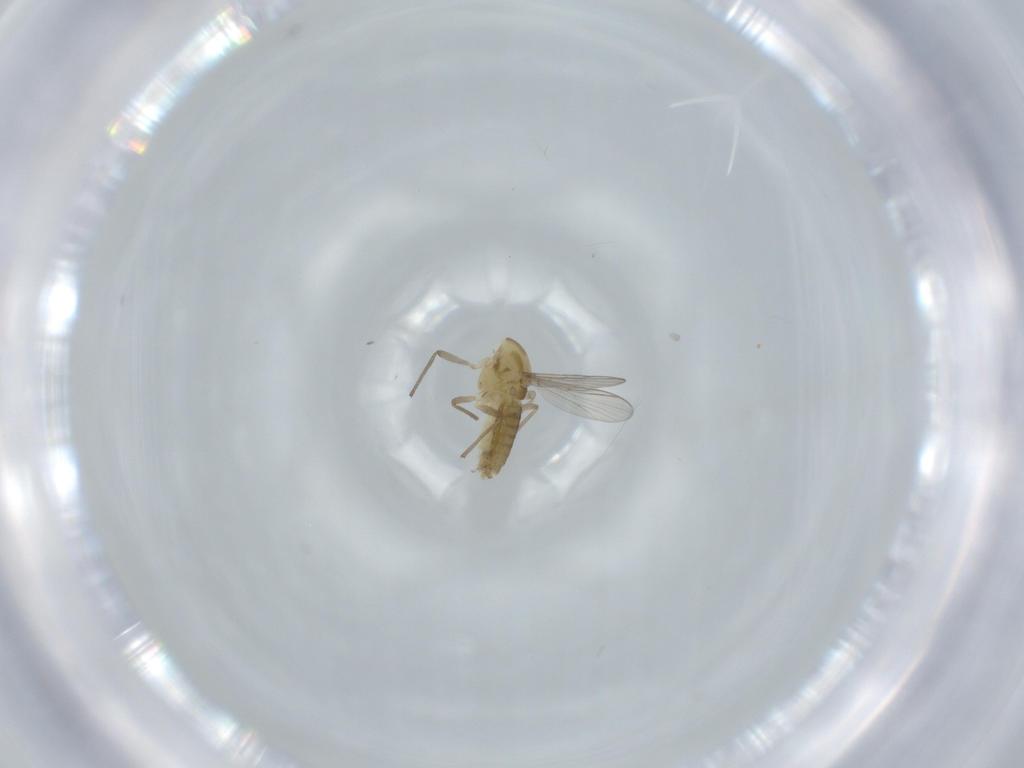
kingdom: Animalia
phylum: Arthropoda
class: Insecta
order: Diptera
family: Chironomidae
